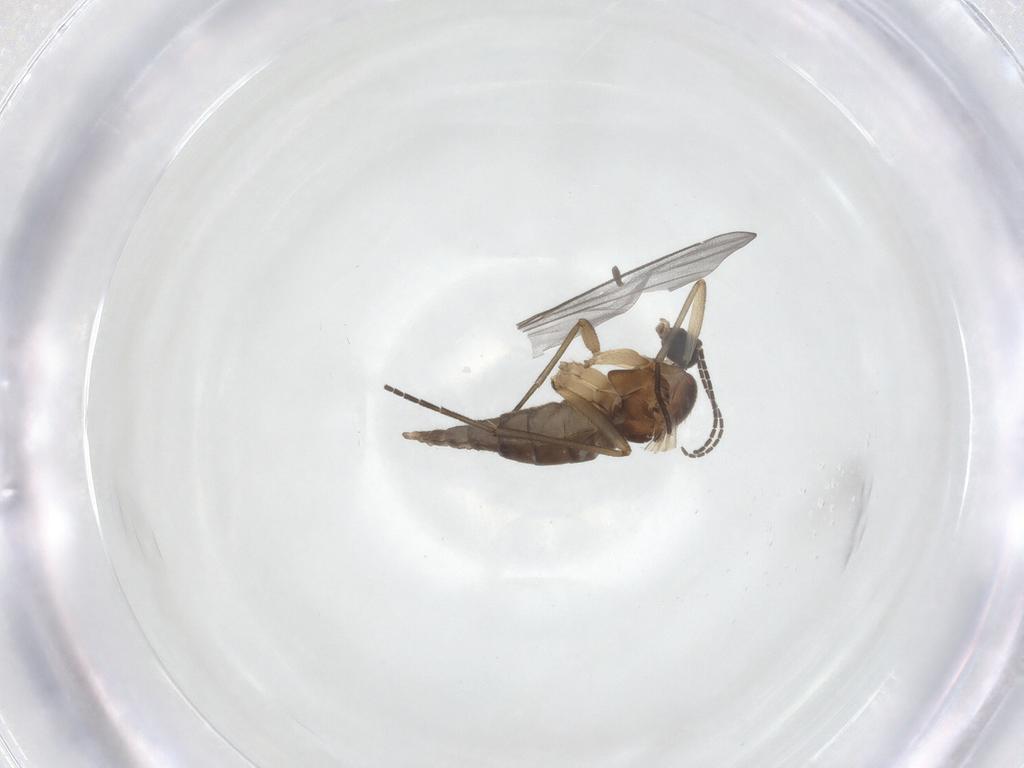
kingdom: Animalia
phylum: Arthropoda
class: Insecta
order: Diptera
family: Sciaridae
